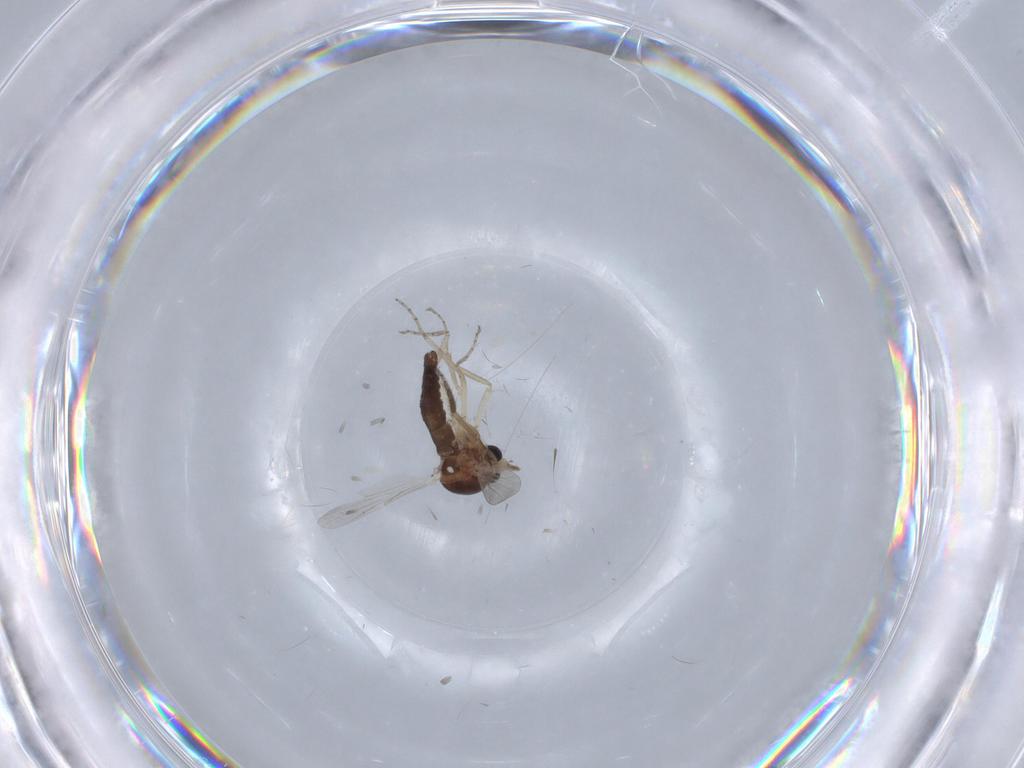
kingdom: Animalia
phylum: Arthropoda
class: Insecta
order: Diptera
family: Ceratopogonidae
